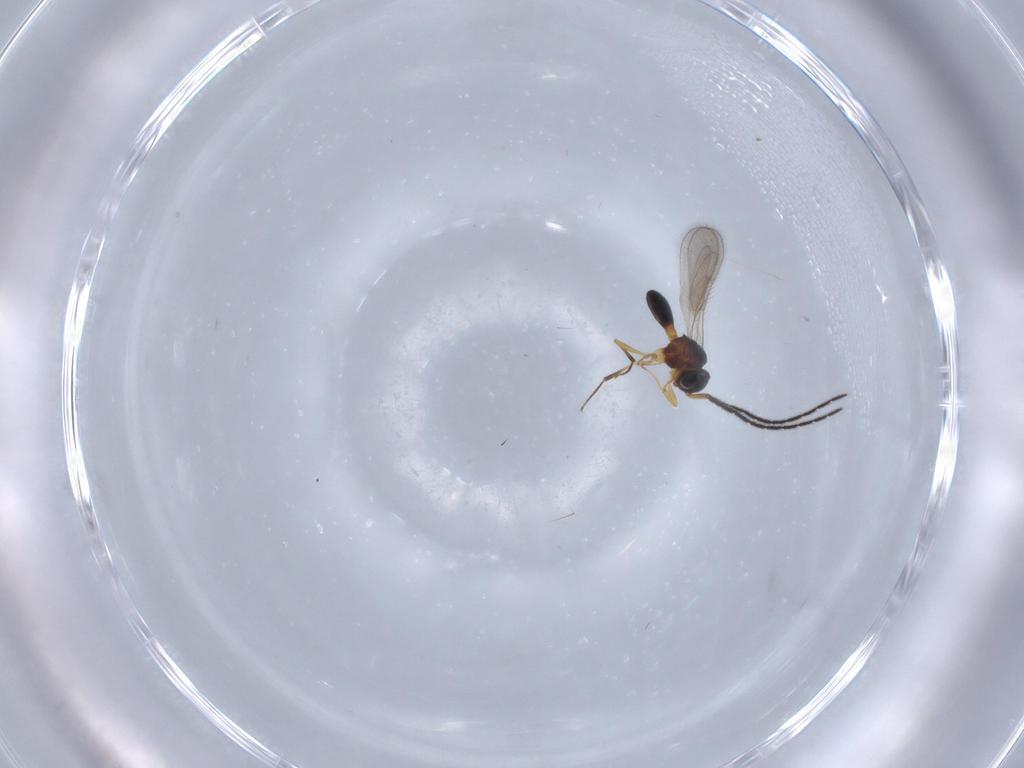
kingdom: Animalia
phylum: Arthropoda
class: Insecta
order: Hymenoptera
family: Scelionidae
